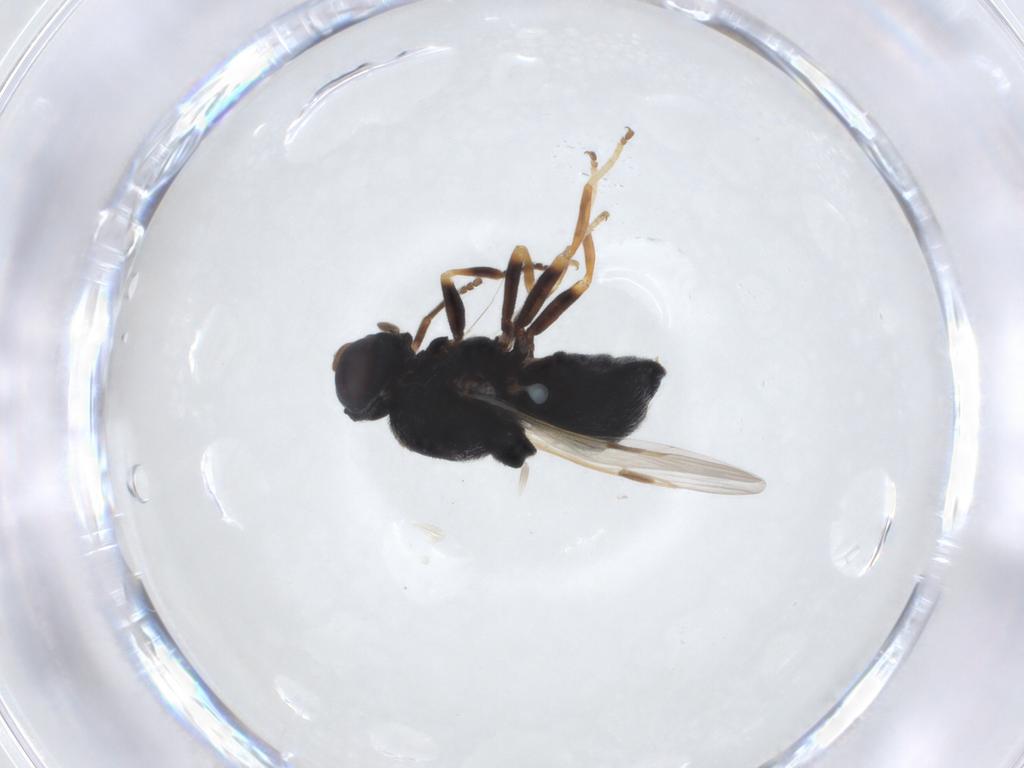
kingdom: Animalia
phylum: Arthropoda
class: Insecta
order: Diptera
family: Stratiomyidae
